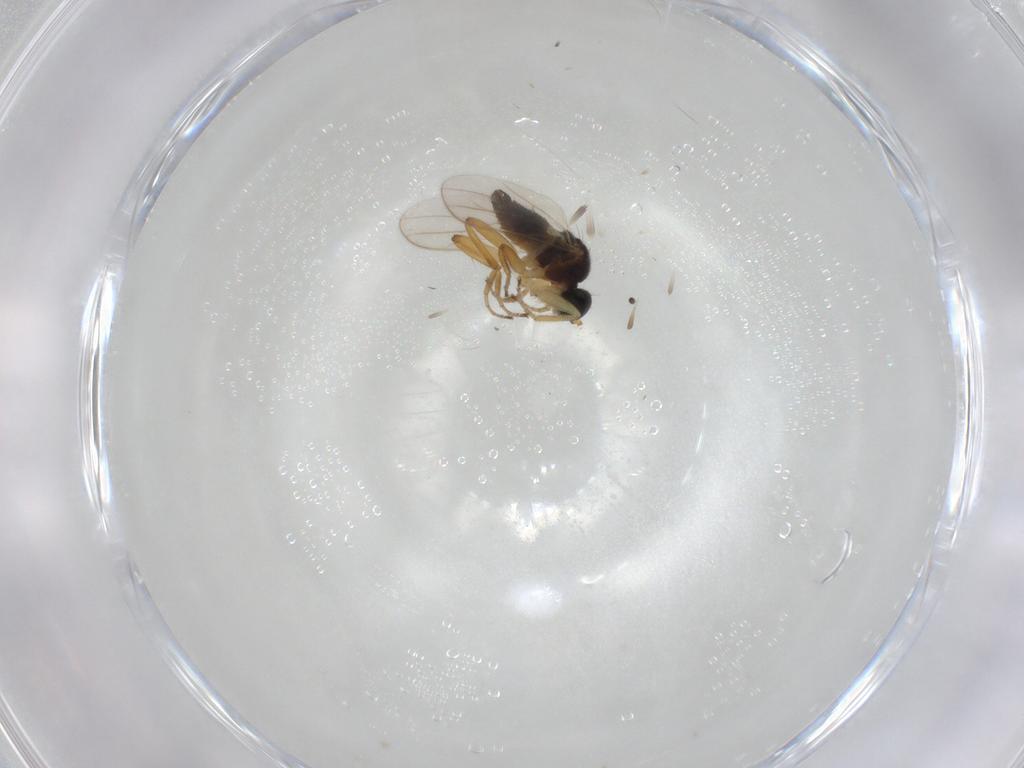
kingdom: Animalia
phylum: Arthropoda
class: Insecta
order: Diptera
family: Hybotidae
